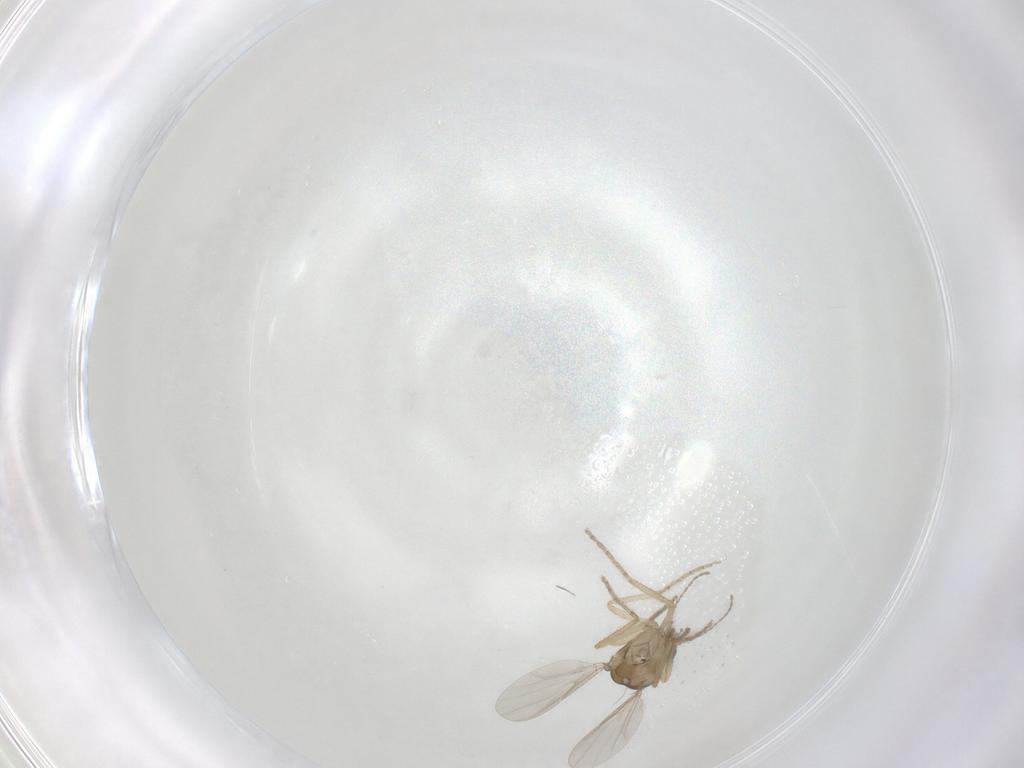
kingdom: Animalia
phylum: Arthropoda
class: Insecta
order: Diptera
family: Ceratopogonidae
